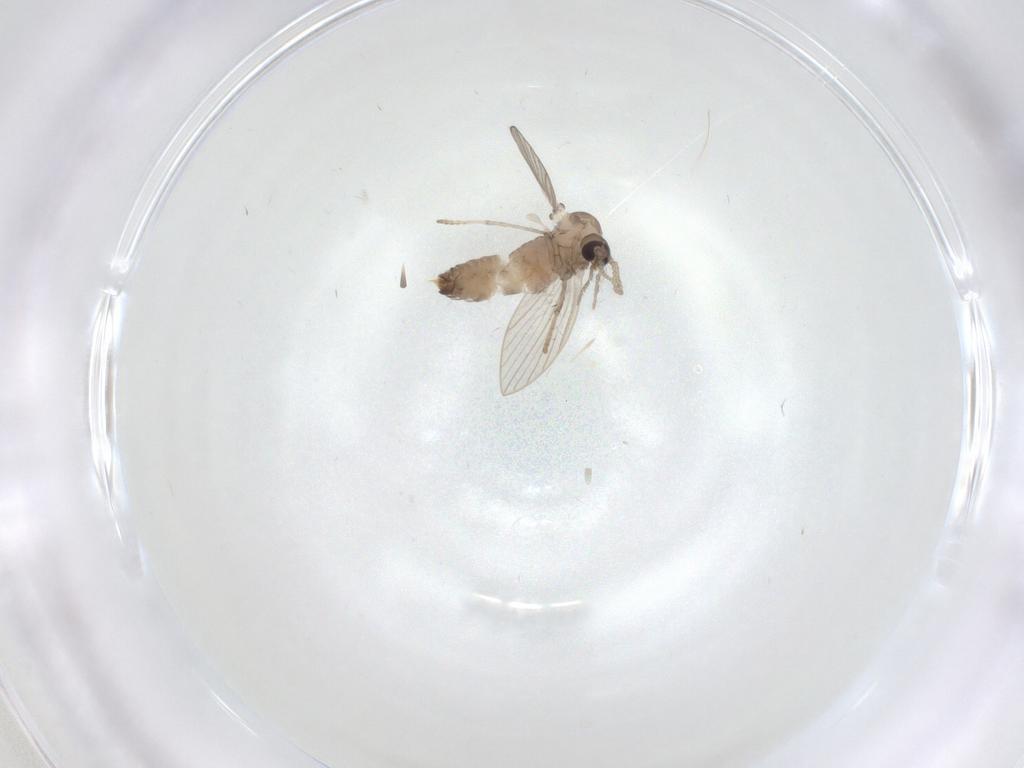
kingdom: Animalia
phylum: Arthropoda
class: Insecta
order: Diptera
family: Psychodidae
